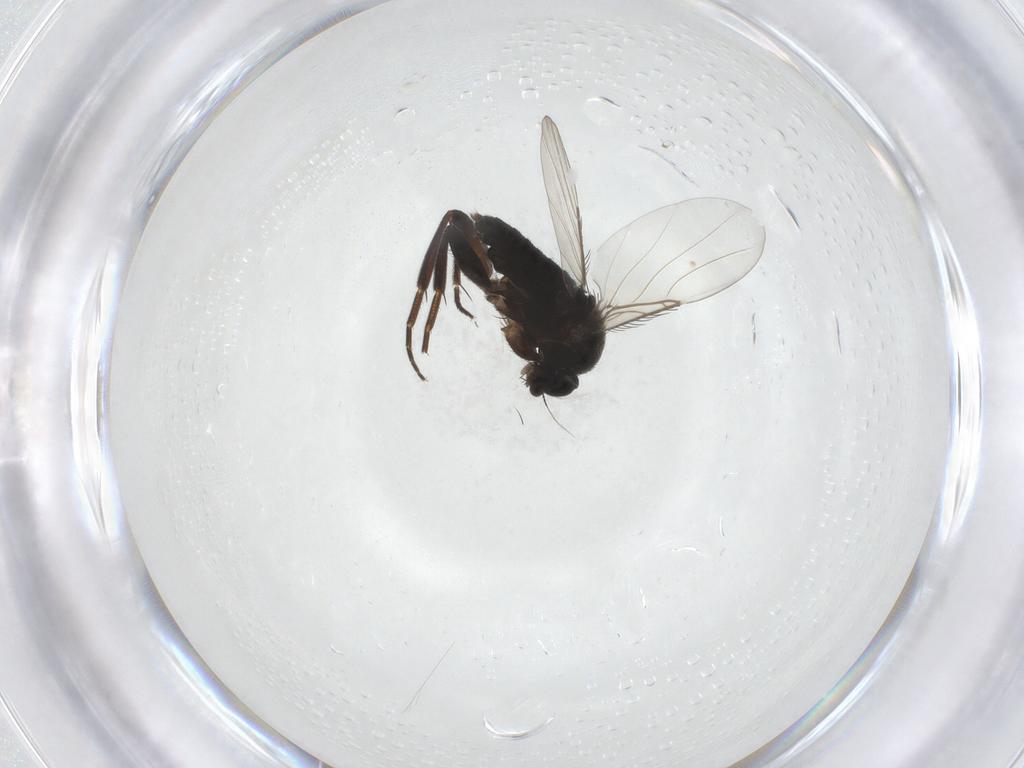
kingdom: Animalia
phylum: Arthropoda
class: Insecta
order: Diptera
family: Phoridae
